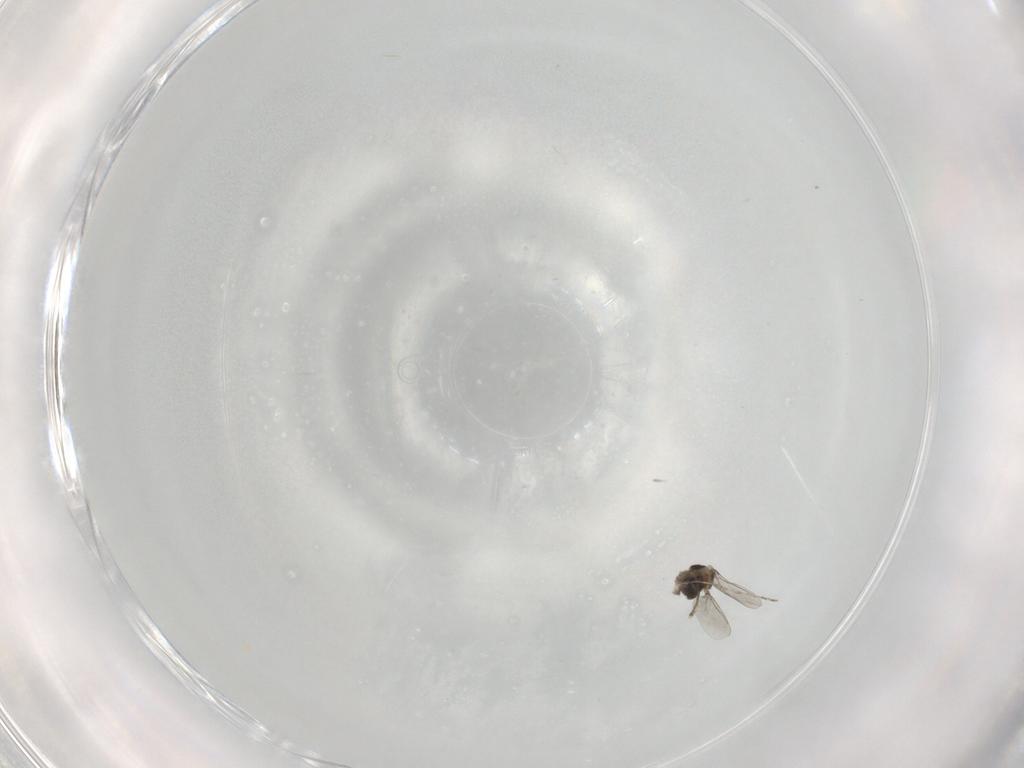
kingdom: Animalia
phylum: Arthropoda
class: Insecta
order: Diptera
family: Cecidomyiidae
